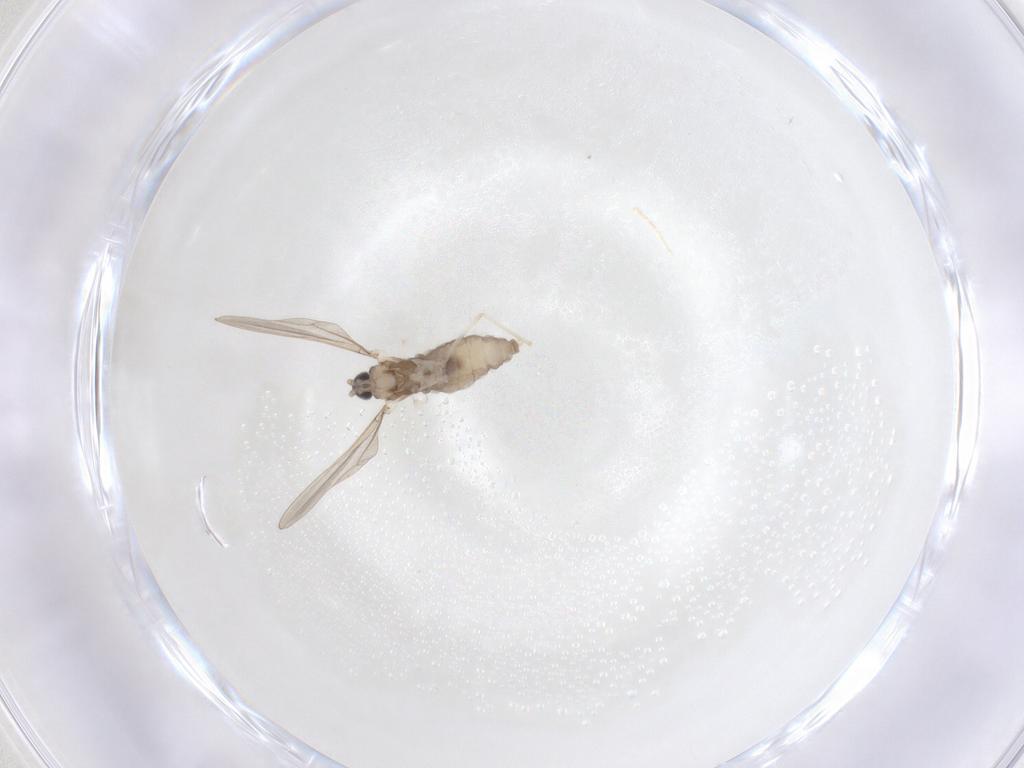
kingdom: Animalia
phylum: Arthropoda
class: Insecta
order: Diptera
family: Cecidomyiidae
